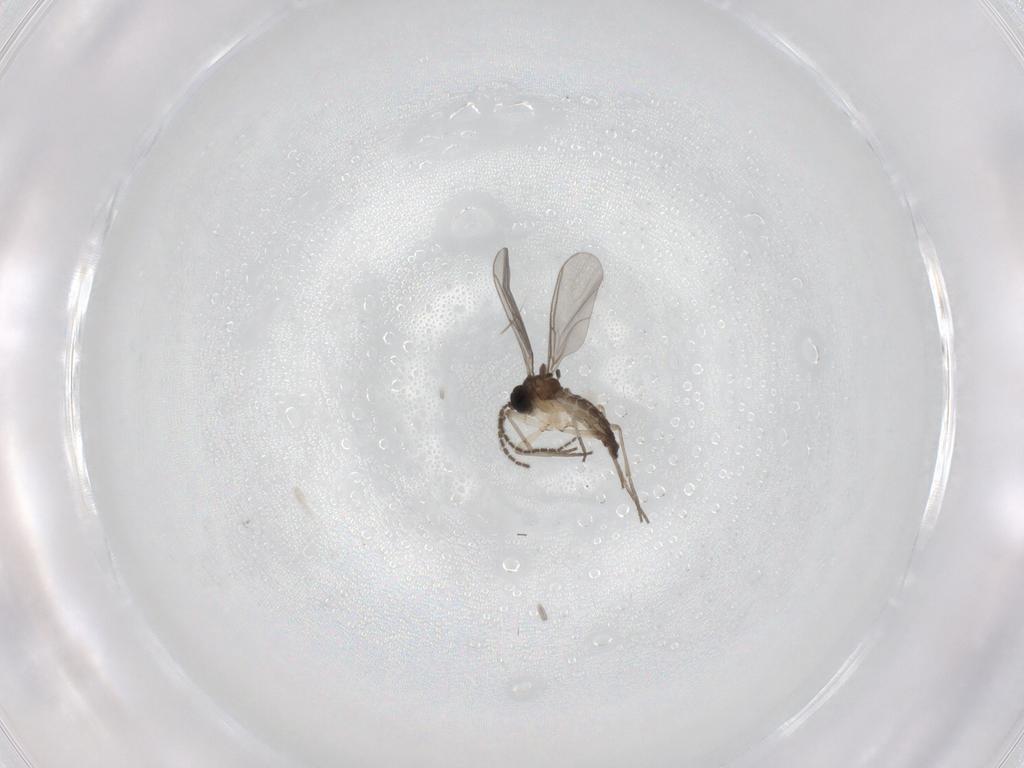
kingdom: Animalia
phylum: Arthropoda
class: Insecta
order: Diptera
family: Sciaridae
